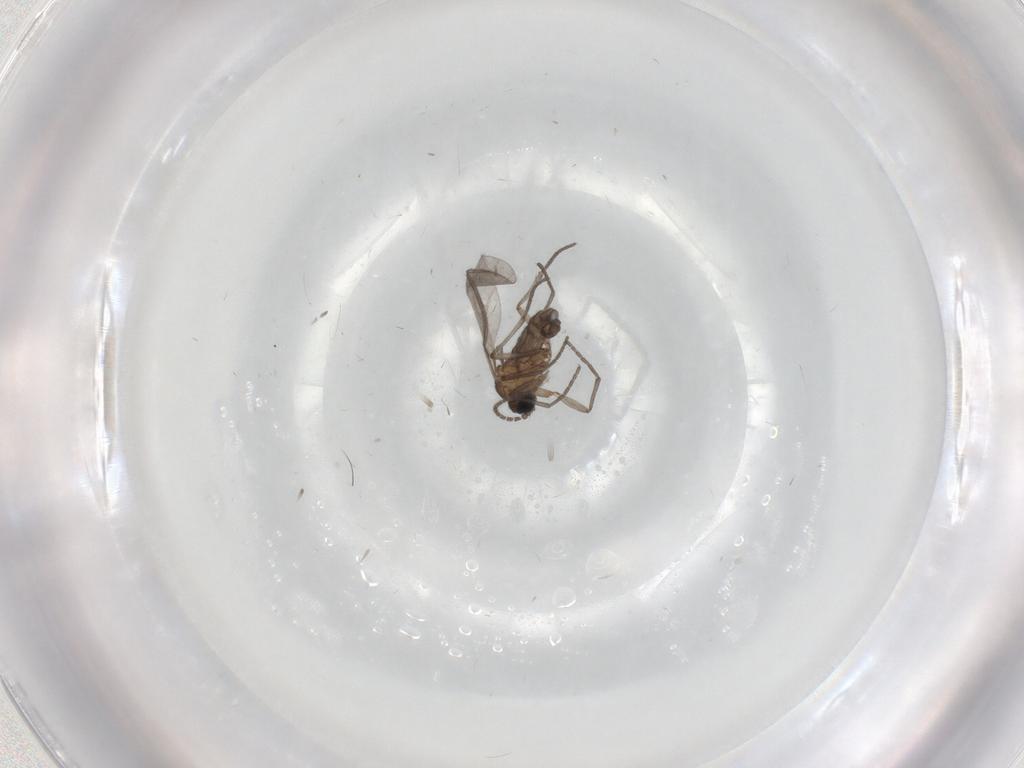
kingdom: Animalia
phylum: Arthropoda
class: Insecta
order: Diptera
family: Sciaridae
